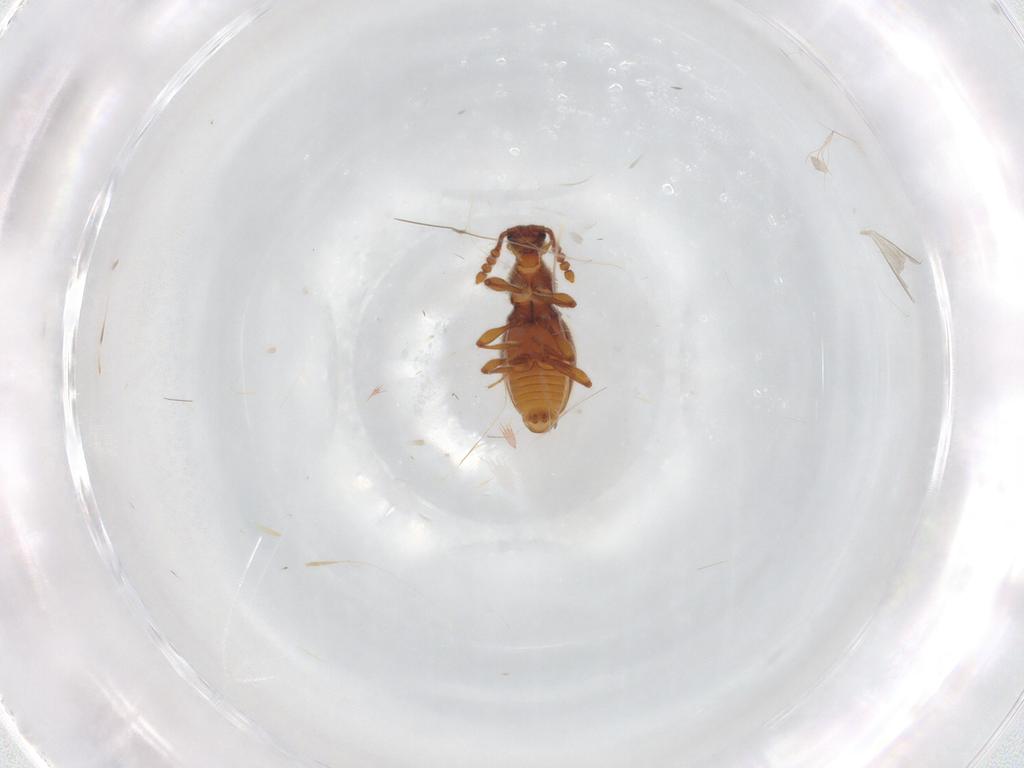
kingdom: Animalia
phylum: Arthropoda
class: Insecta
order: Coleoptera
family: Staphylinidae
